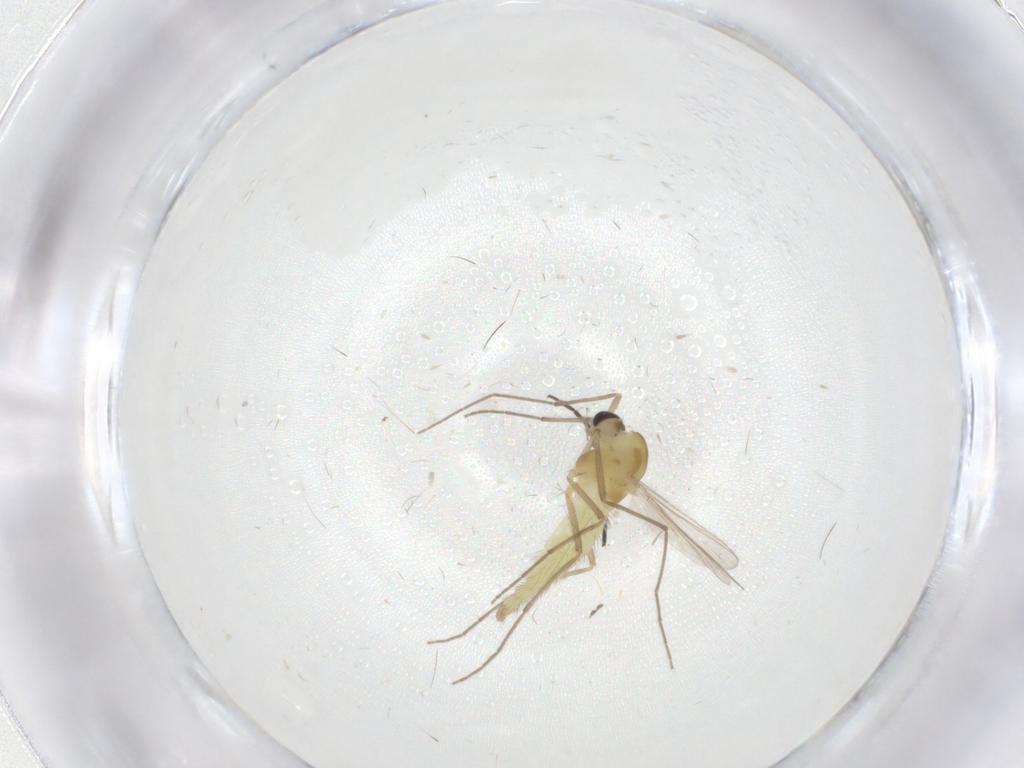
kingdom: Animalia
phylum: Arthropoda
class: Insecta
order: Diptera
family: Chironomidae
